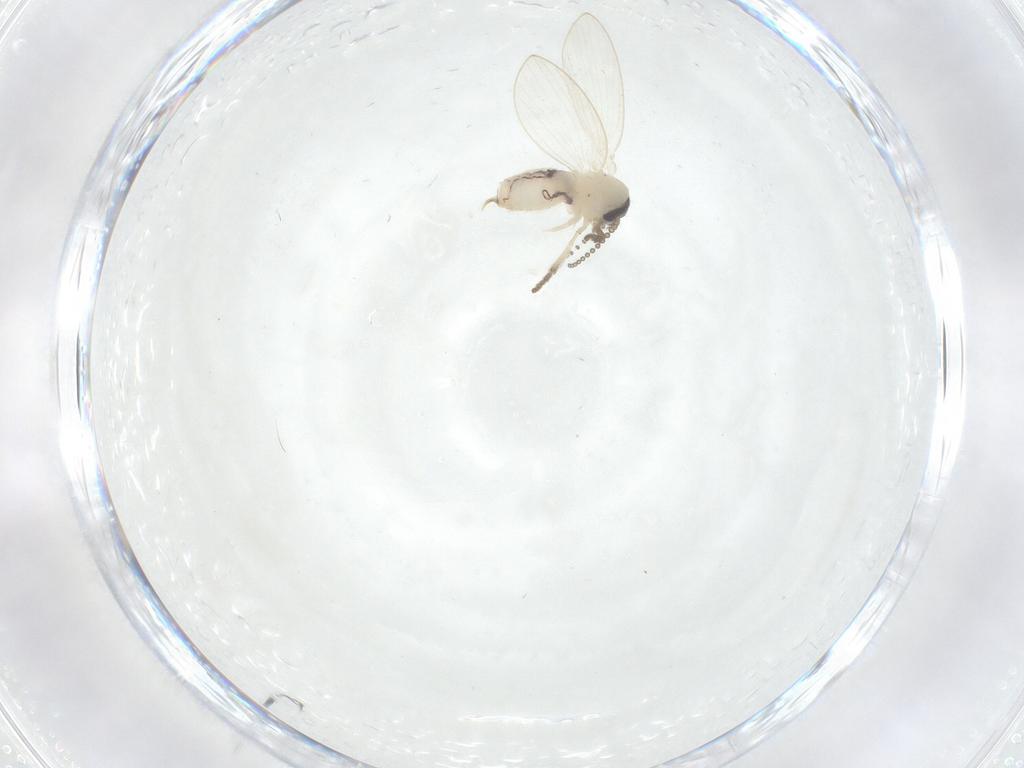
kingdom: Animalia
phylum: Arthropoda
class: Insecta
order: Diptera
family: Psychodidae
